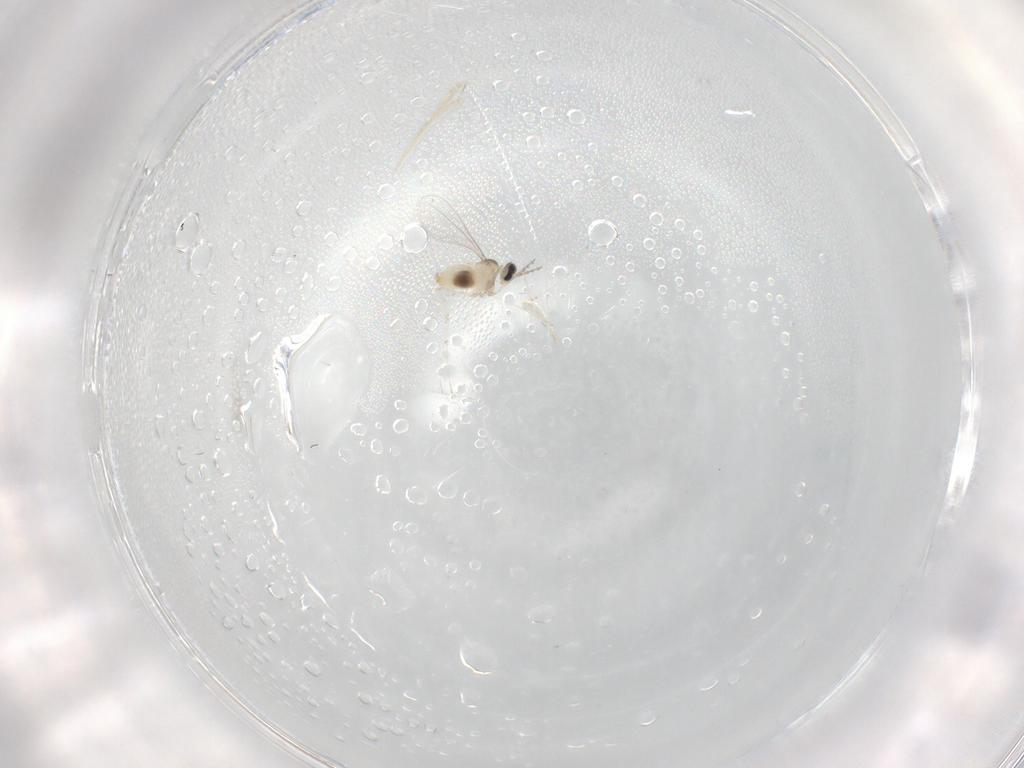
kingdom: Animalia
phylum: Arthropoda
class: Insecta
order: Diptera
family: Cecidomyiidae
